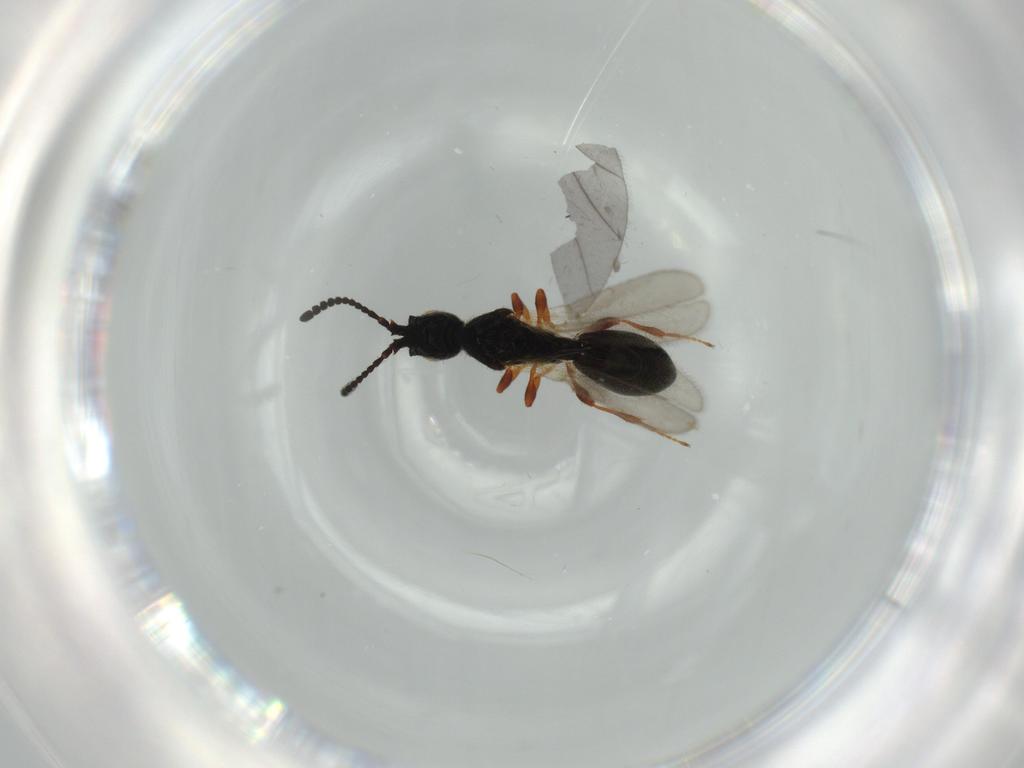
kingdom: Animalia
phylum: Arthropoda
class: Insecta
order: Hymenoptera
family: Diapriidae
